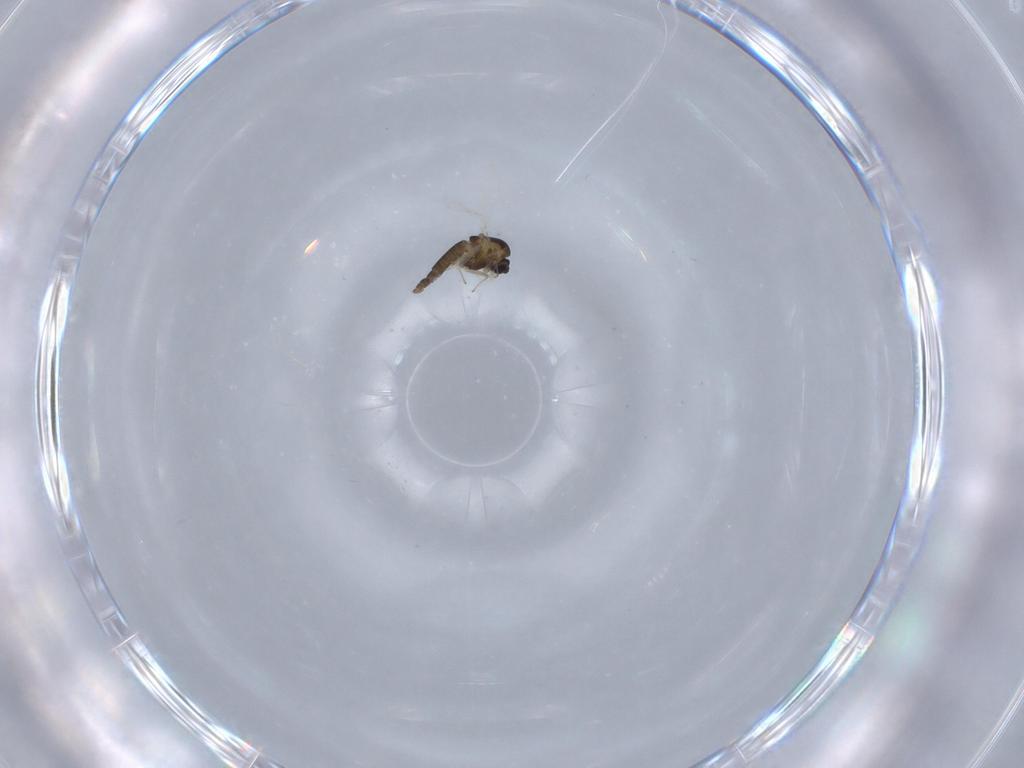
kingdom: Animalia
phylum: Arthropoda
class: Insecta
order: Diptera
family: Chironomidae
